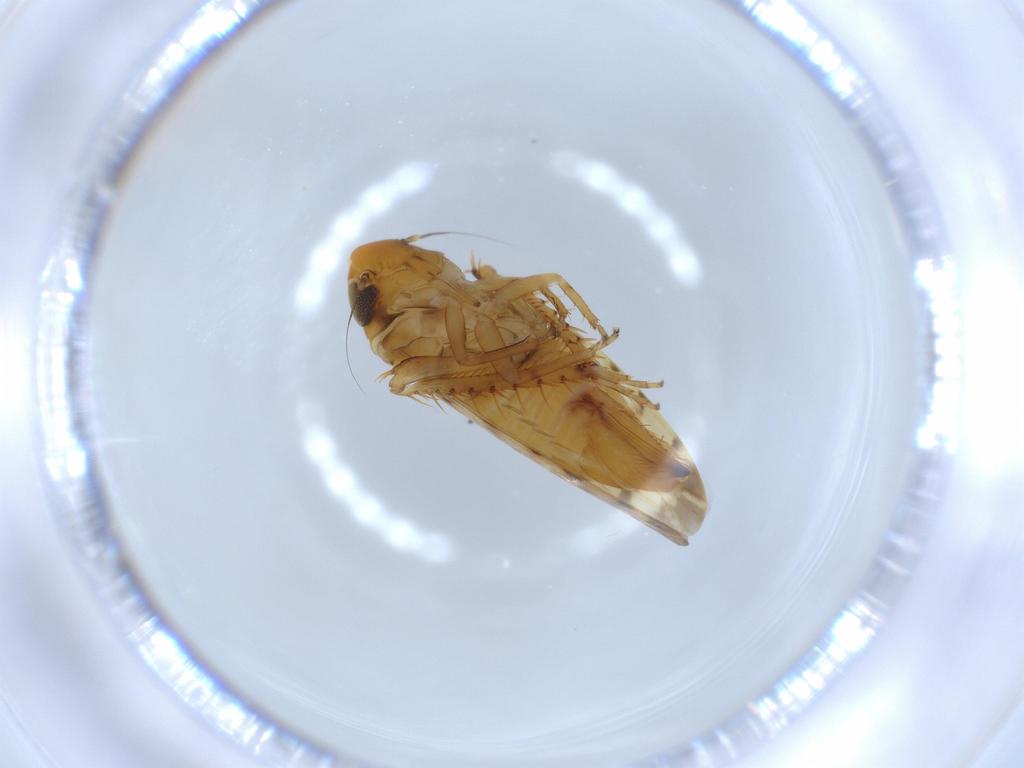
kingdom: Animalia
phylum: Arthropoda
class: Insecta
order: Hemiptera
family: Cicadellidae
